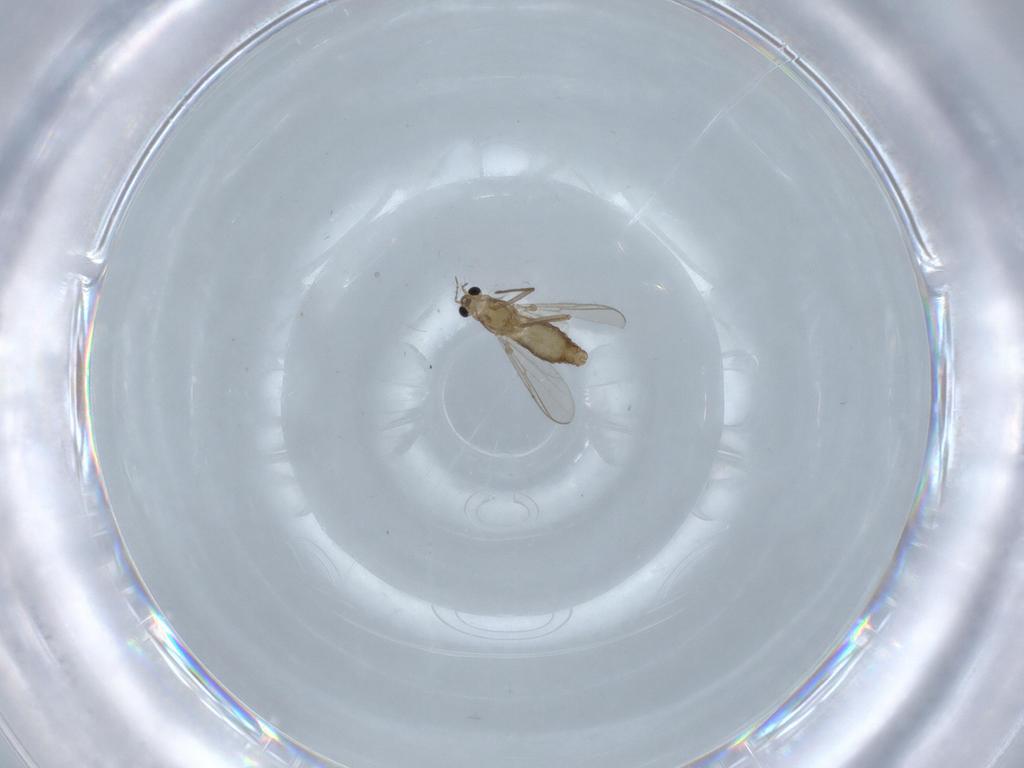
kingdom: Animalia
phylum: Arthropoda
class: Insecta
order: Diptera
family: Chironomidae
